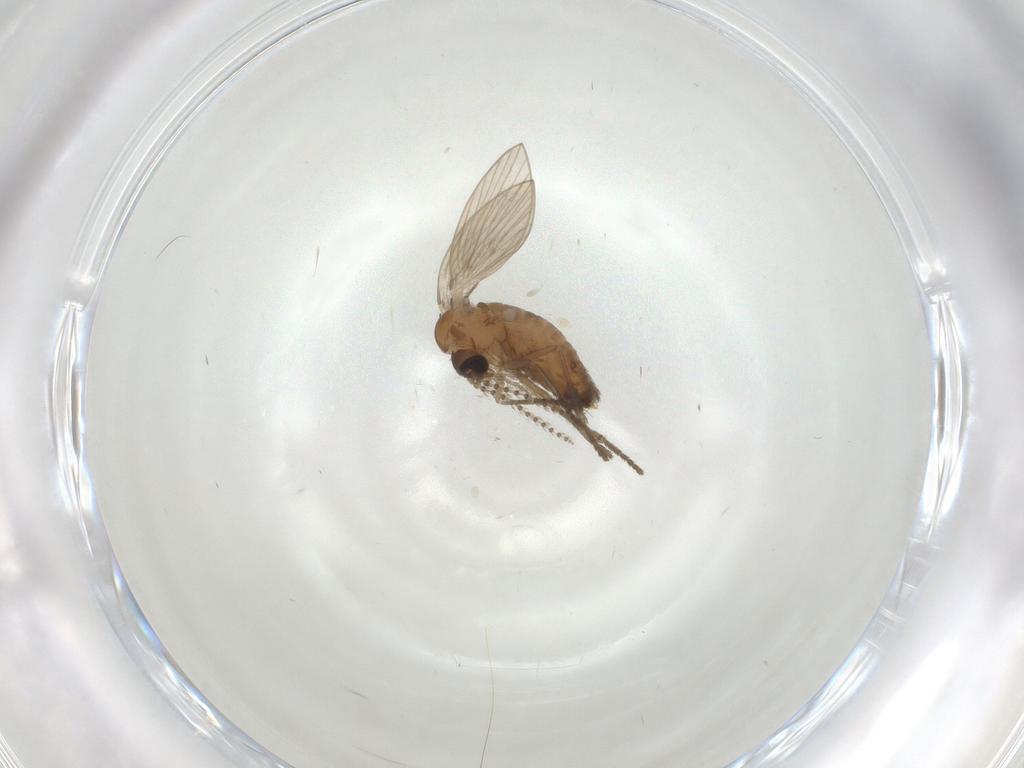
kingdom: Animalia
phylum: Arthropoda
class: Insecta
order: Diptera
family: Psychodidae
